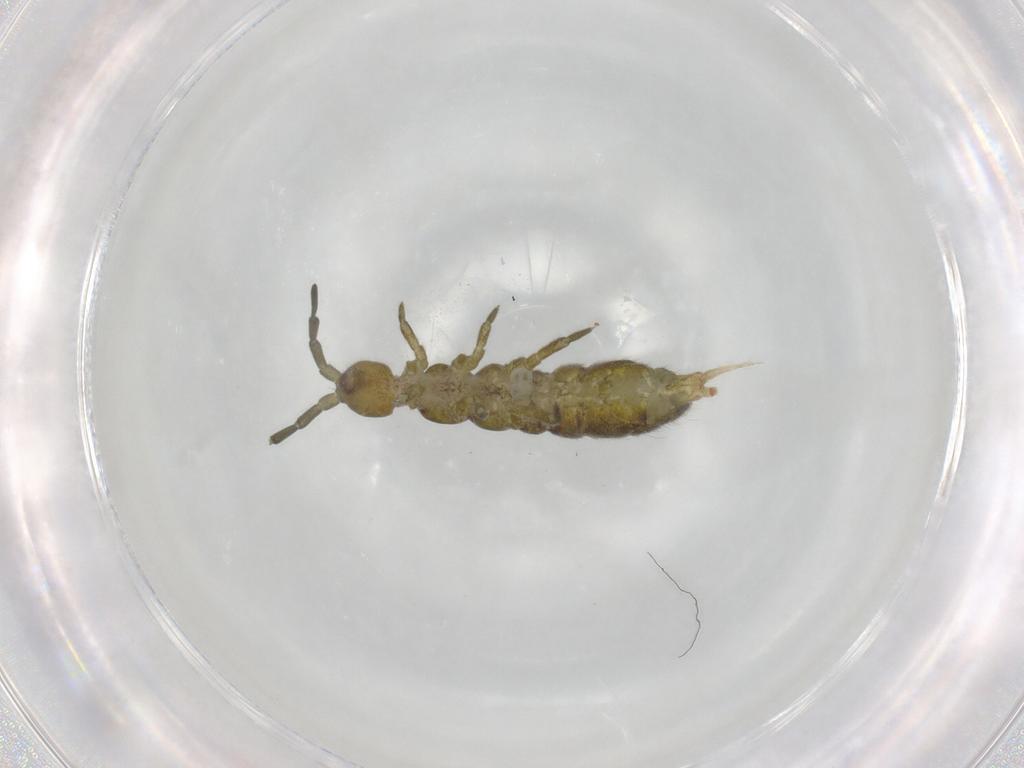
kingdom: Animalia
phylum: Arthropoda
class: Collembola
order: Entomobryomorpha
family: Isotomidae
